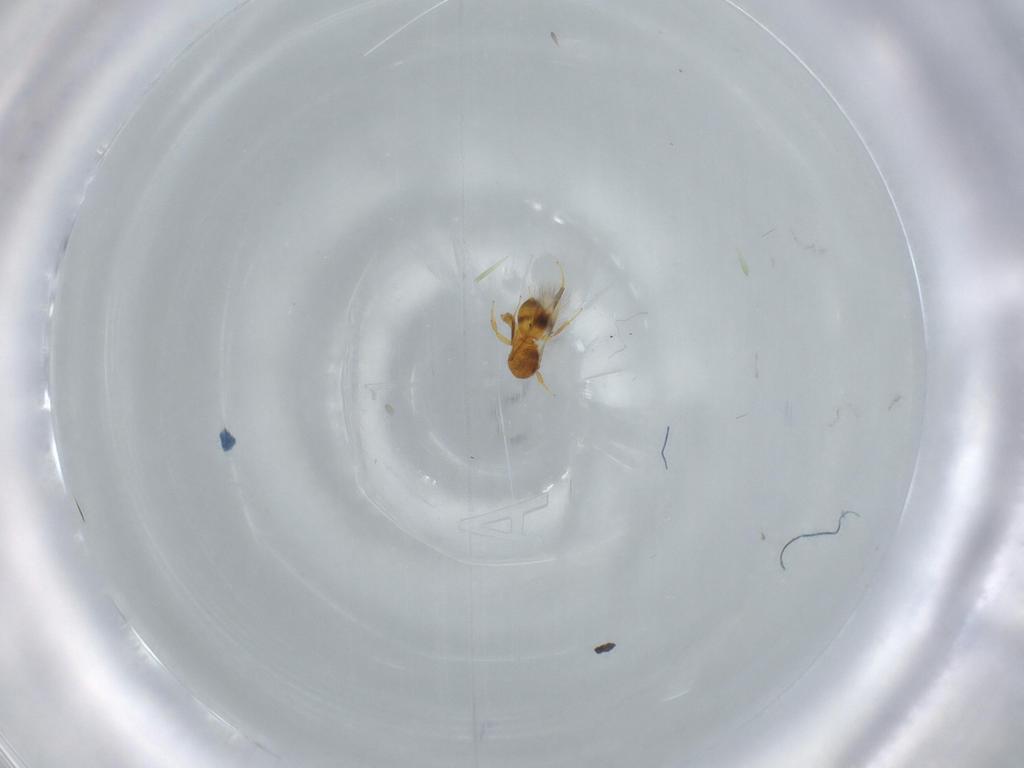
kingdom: Animalia
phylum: Arthropoda
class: Insecta
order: Hymenoptera
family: Scelionidae
